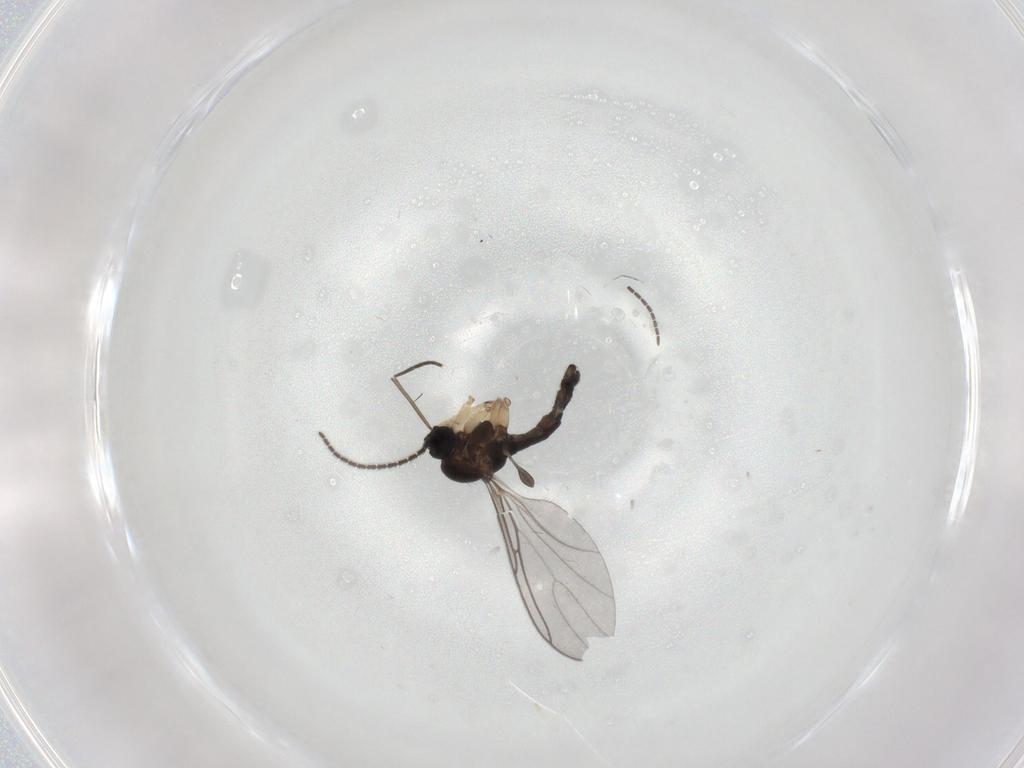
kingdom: Animalia
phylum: Arthropoda
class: Insecta
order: Diptera
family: Sciaridae
